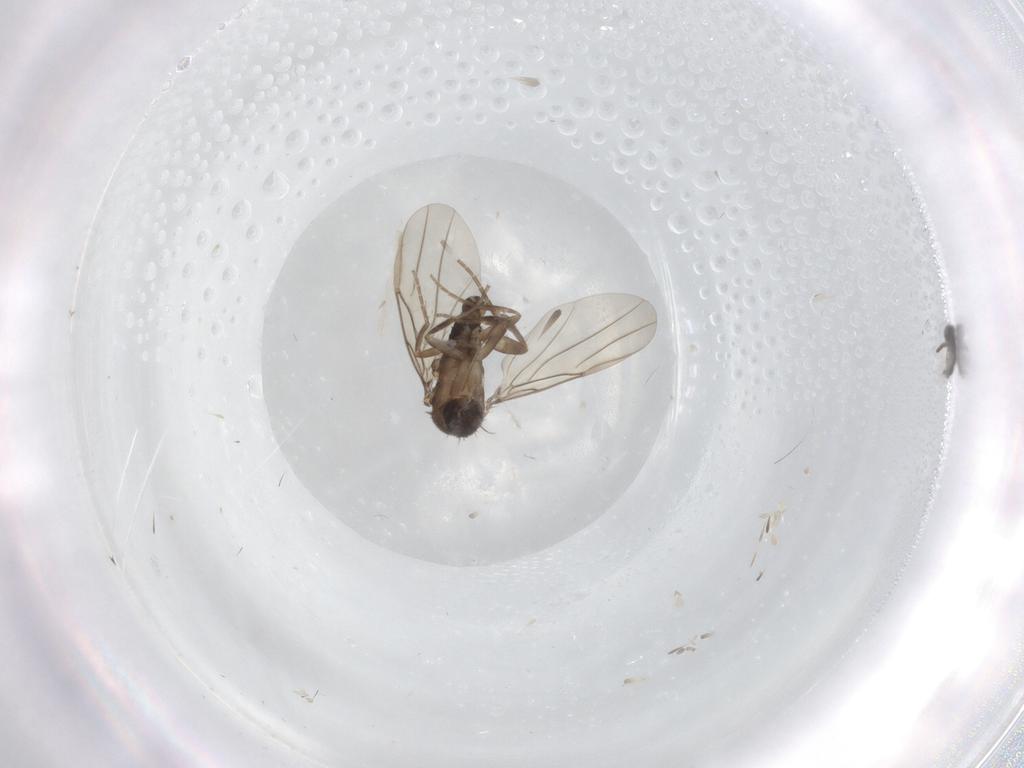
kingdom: Animalia
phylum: Arthropoda
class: Insecta
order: Diptera
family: Phoridae
